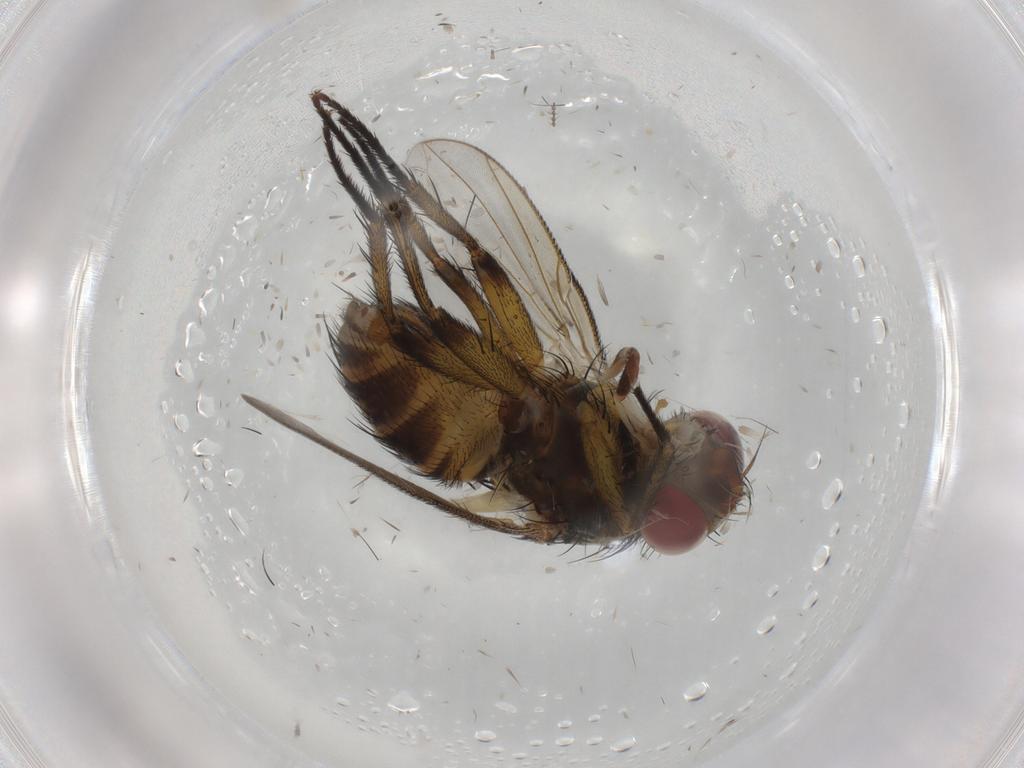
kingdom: Animalia
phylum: Arthropoda
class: Insecta
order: Diptera
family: Tachinidae
